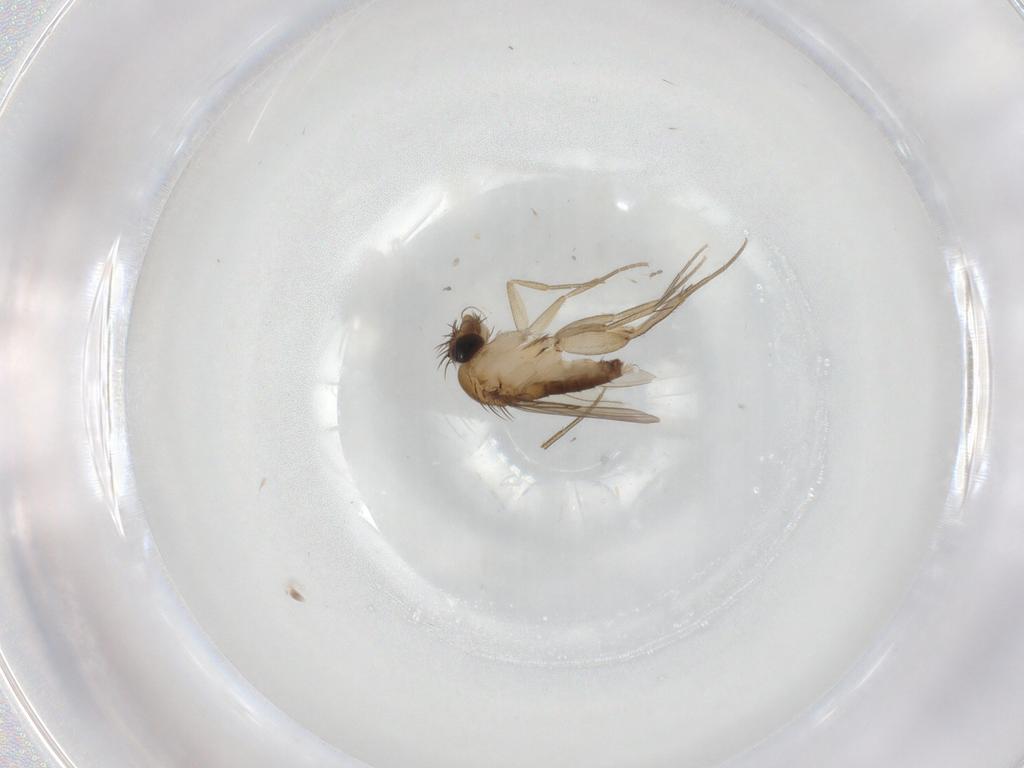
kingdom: Animalia
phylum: Arthropoda
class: Insecta
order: Diptera
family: Phoridae
